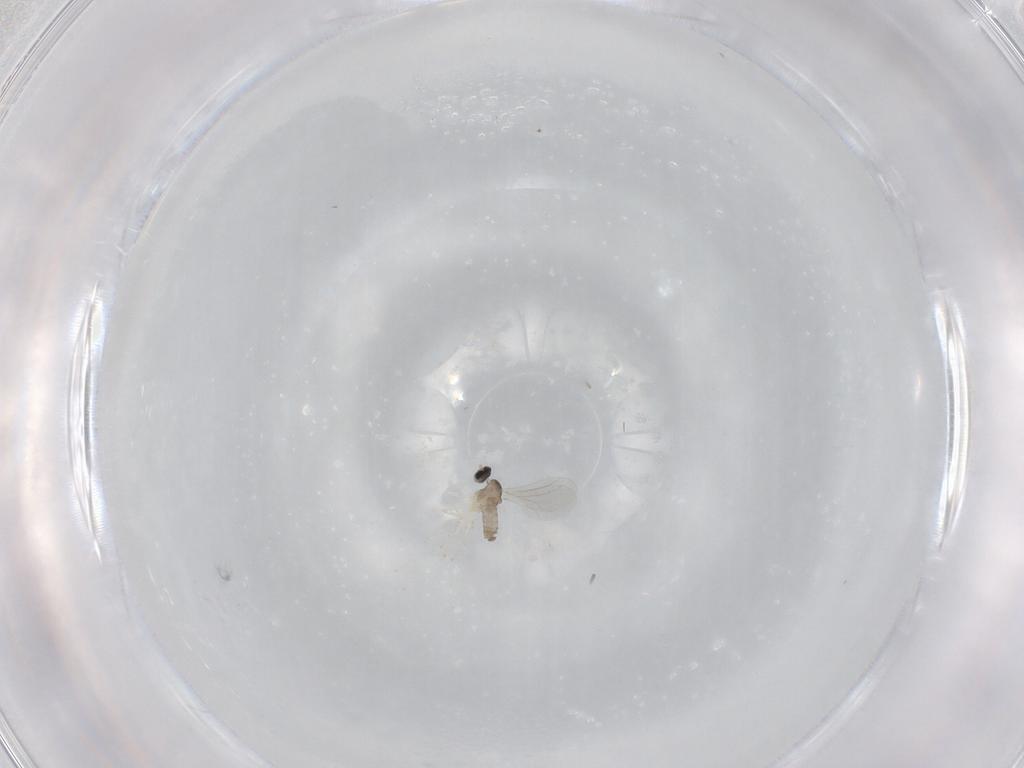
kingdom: Animalia
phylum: Arthropoda
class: Insecta
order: Diptera
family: Cecidomyiidae
